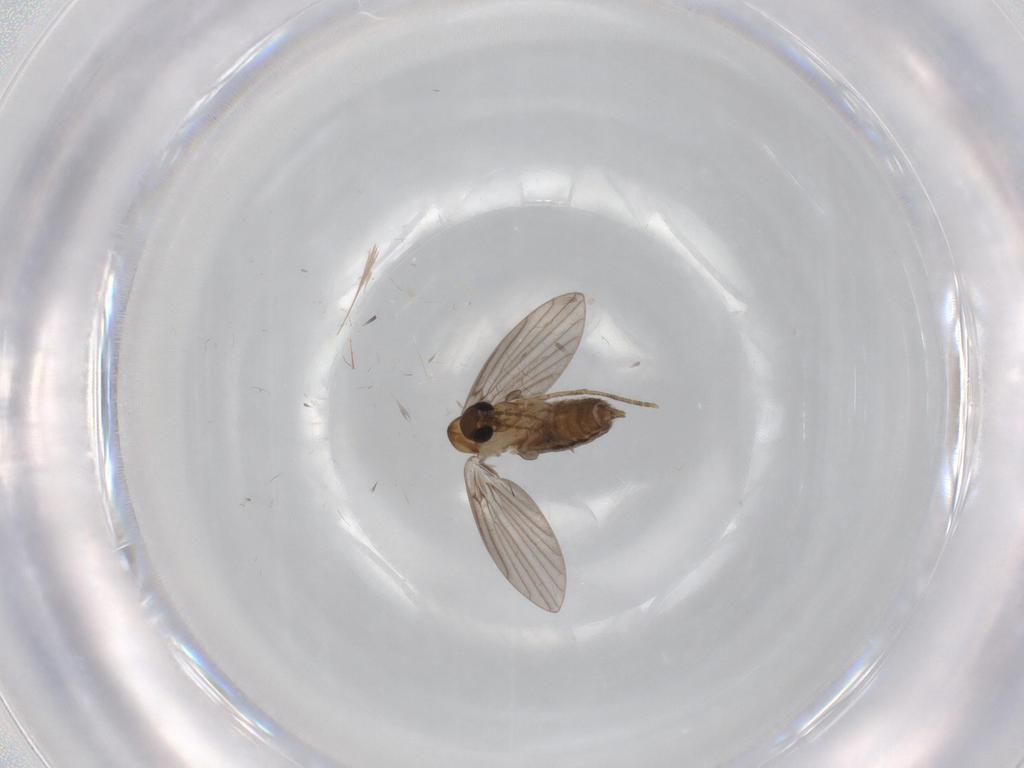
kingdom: Animalia
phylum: Arthropoda
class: Insecta
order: Diptera
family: Limoniidae
